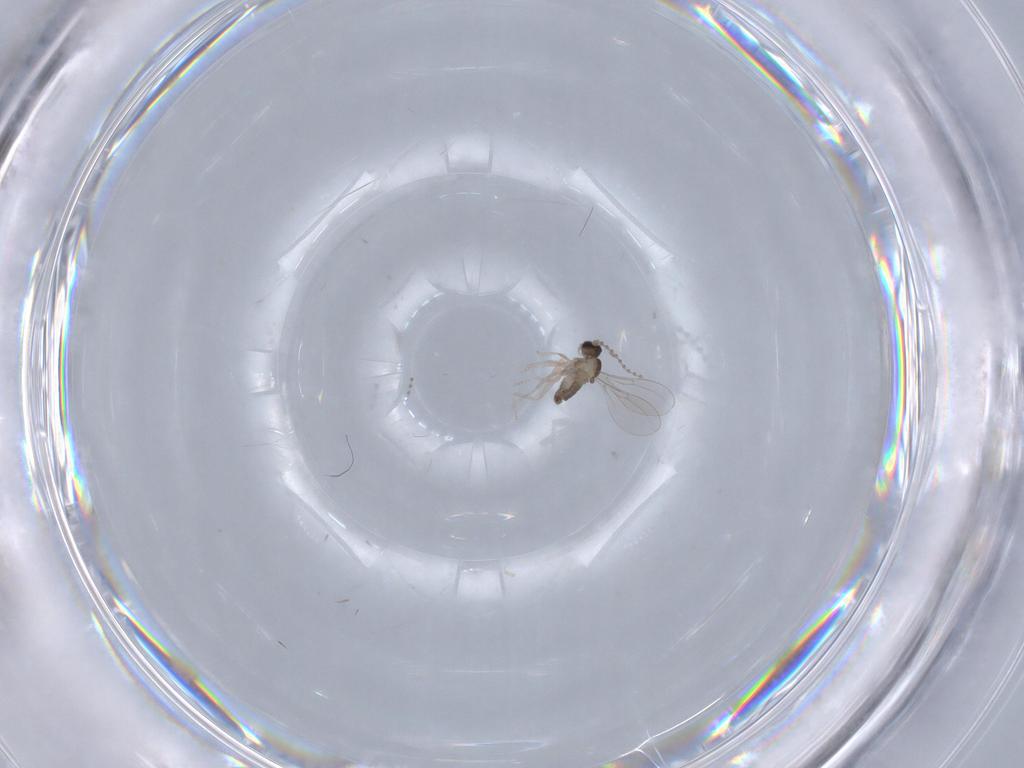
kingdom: Animalia
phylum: Arthropoda
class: Insecta
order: Diptera
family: Cecidomyiidae
